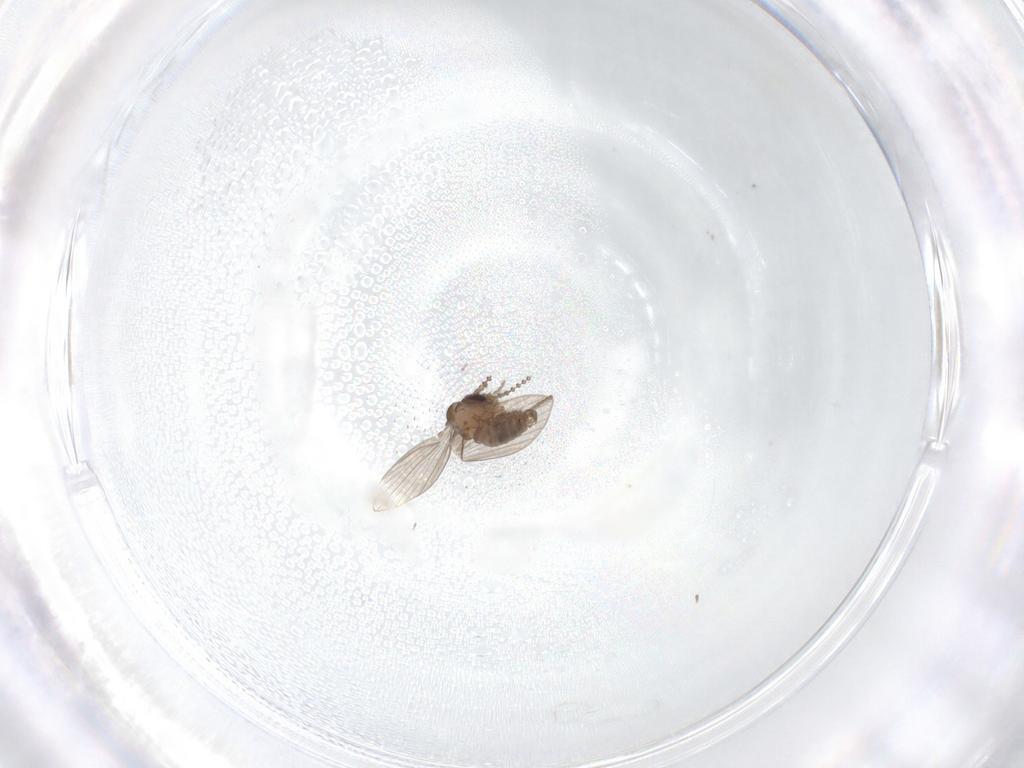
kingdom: Animalia
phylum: Arthropoda
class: Insecta
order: Diptera
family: Psychodidae
